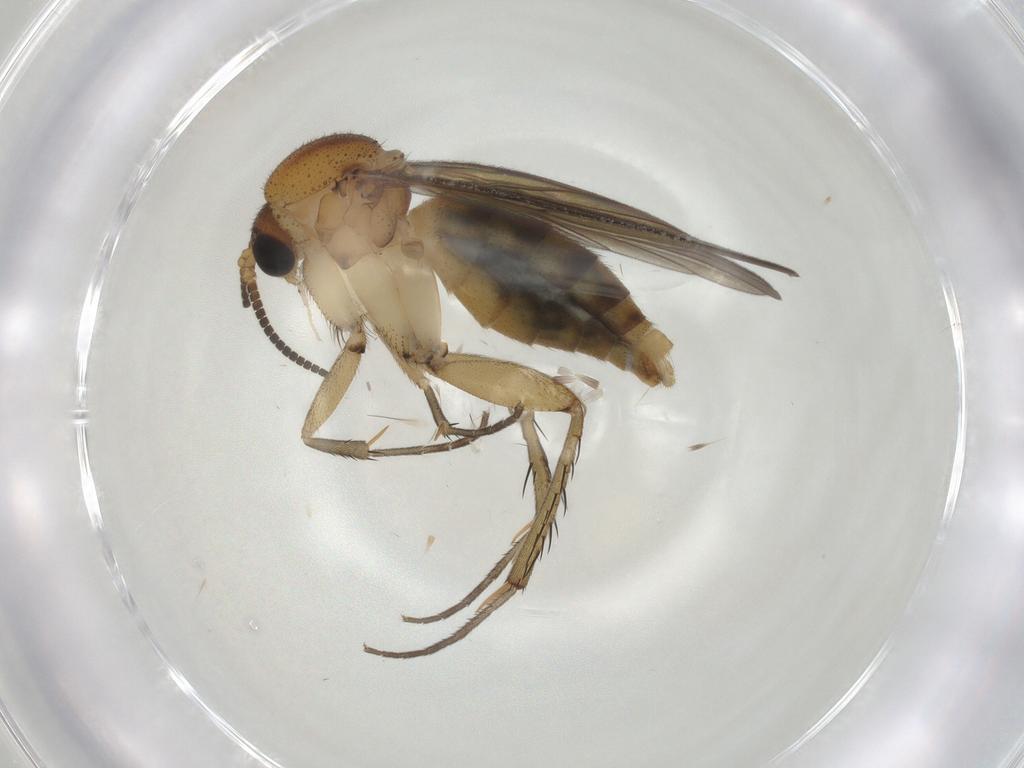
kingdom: Animalia
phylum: Arthropoda
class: Insecta
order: Diptera
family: Mycetophilidae
